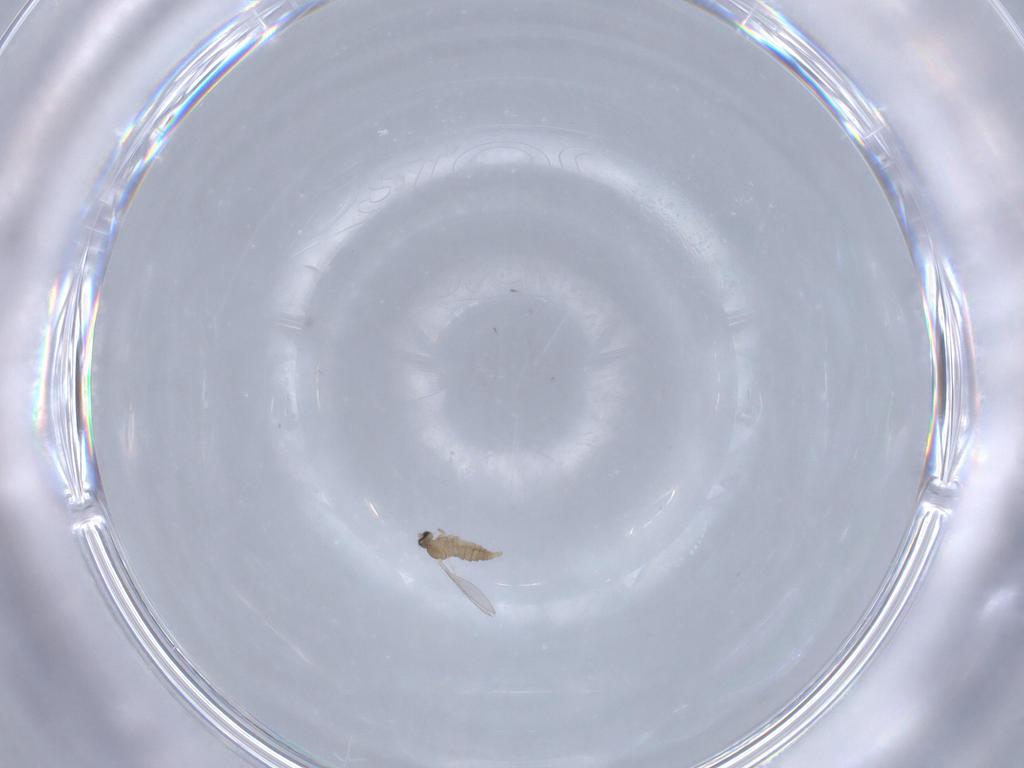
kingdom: Animalia
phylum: Arthropoda
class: Insecta
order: Diptera
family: Cecidomyiidae
